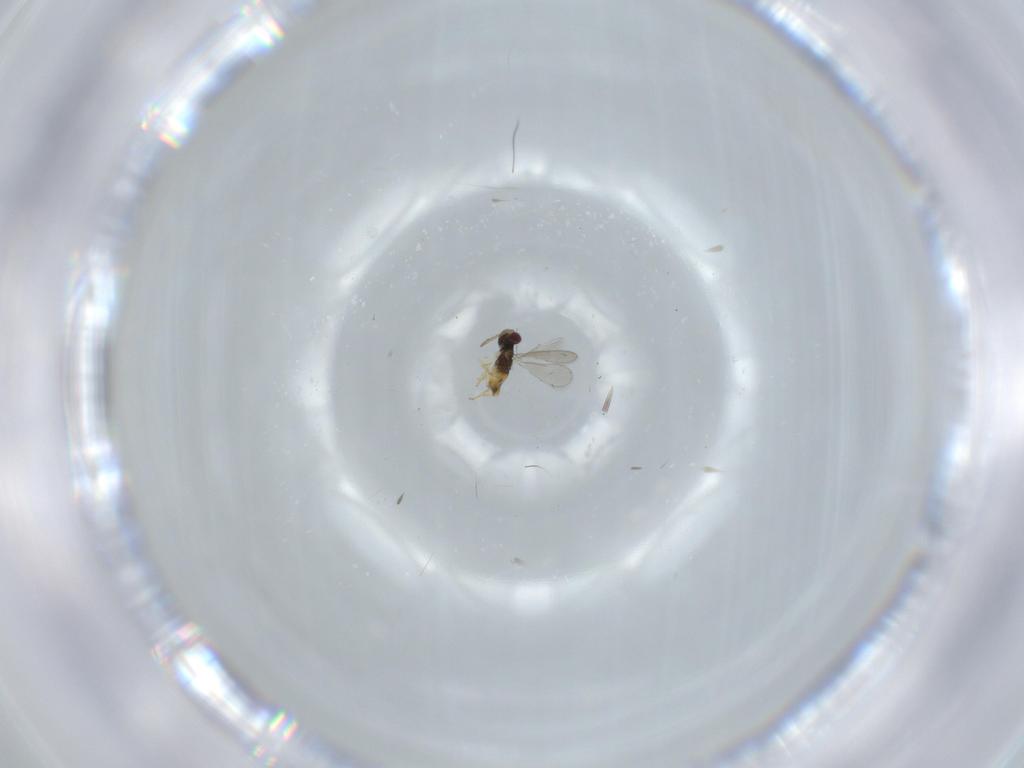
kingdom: Animalia
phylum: Arthropoda
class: Insecta
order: Hymenoptera
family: Aphelinidae
